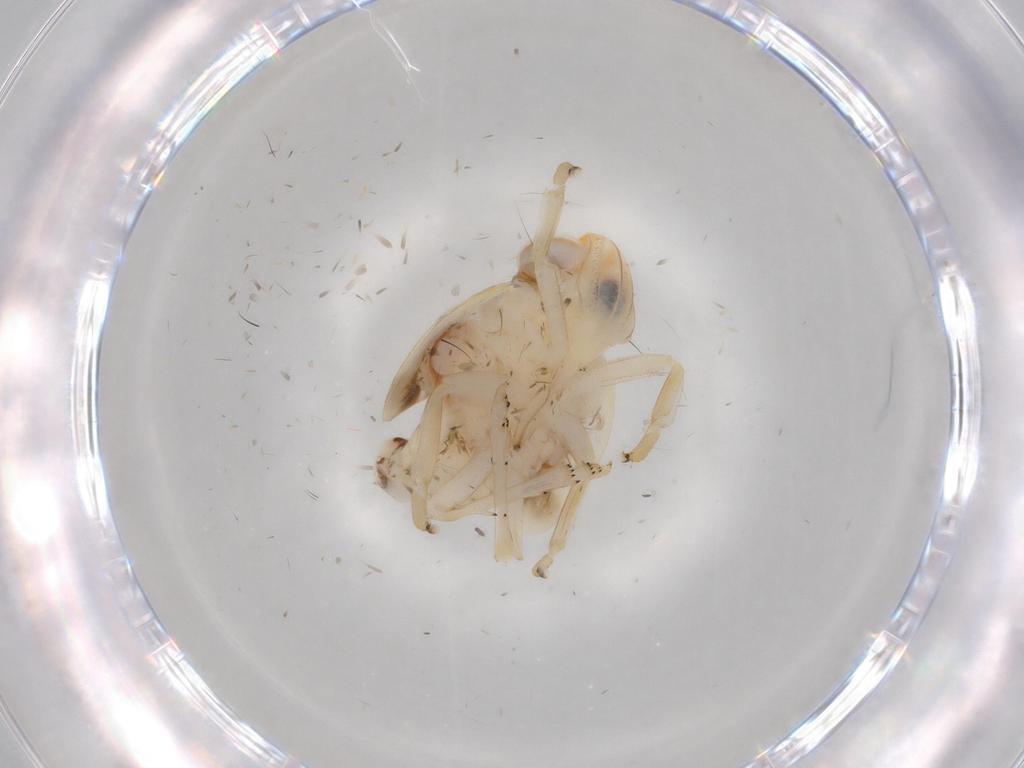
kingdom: Animalia
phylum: Arthropoda
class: Insecta
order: Hemiptera
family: Nogodinidae
